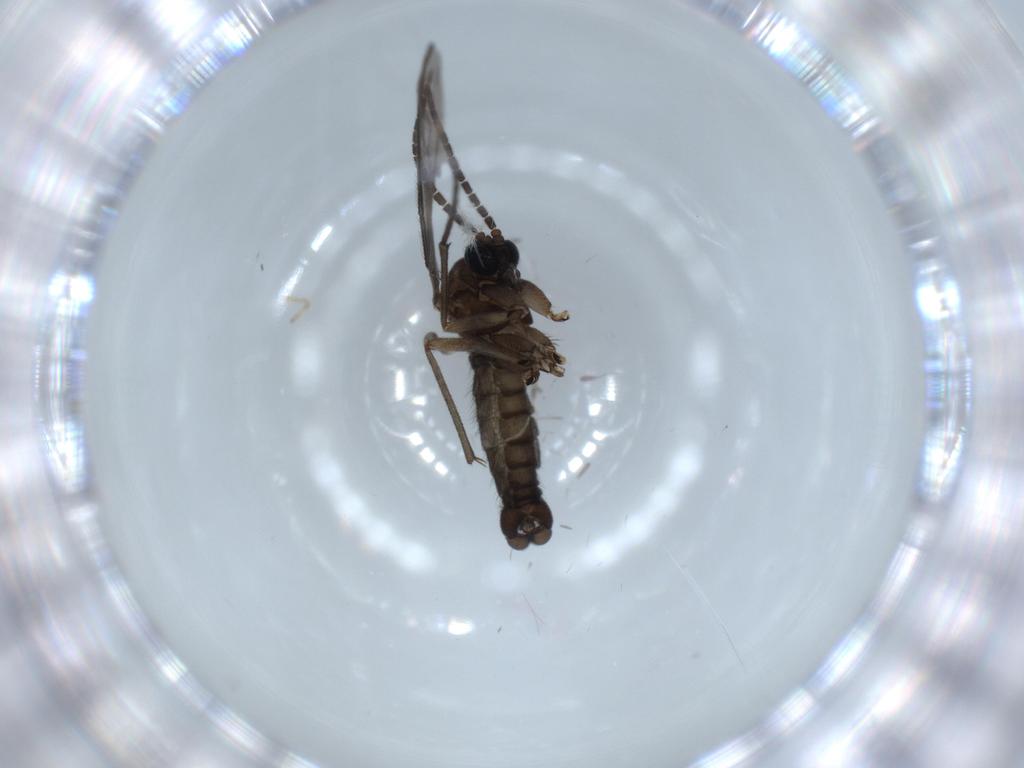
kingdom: Animalia
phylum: Arthropoda
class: Insecta
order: Diptera
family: Sciaridae
